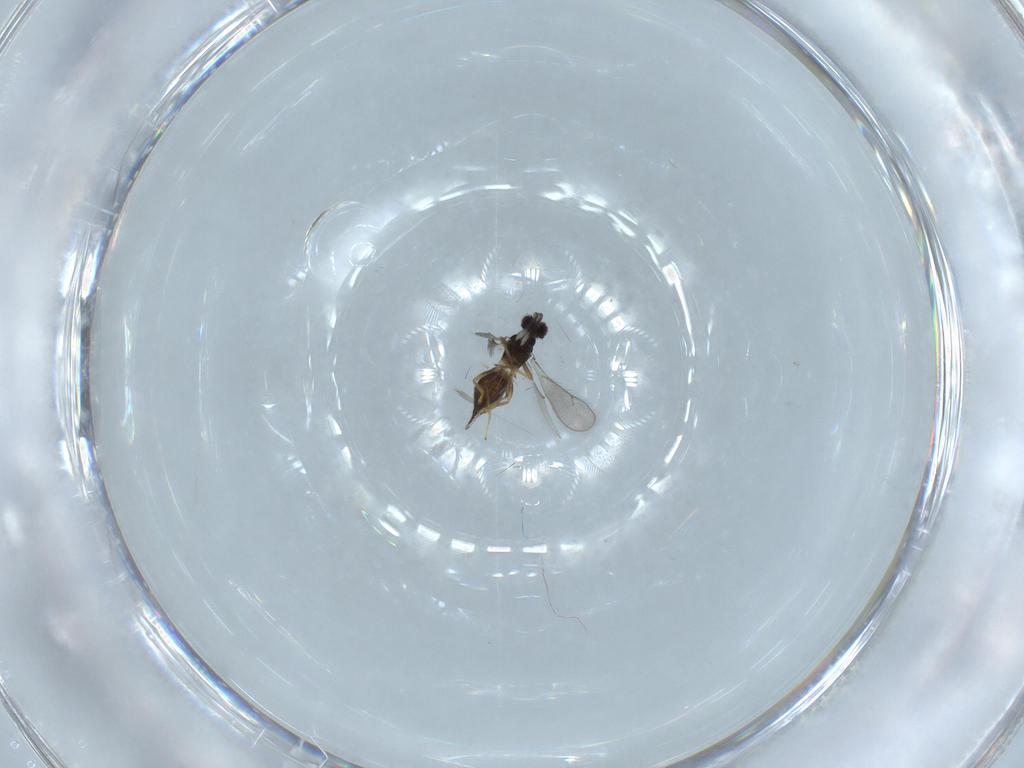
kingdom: Animalia
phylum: Arthropoda
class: Insecta
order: Hymenoptera
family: Eulophidae
